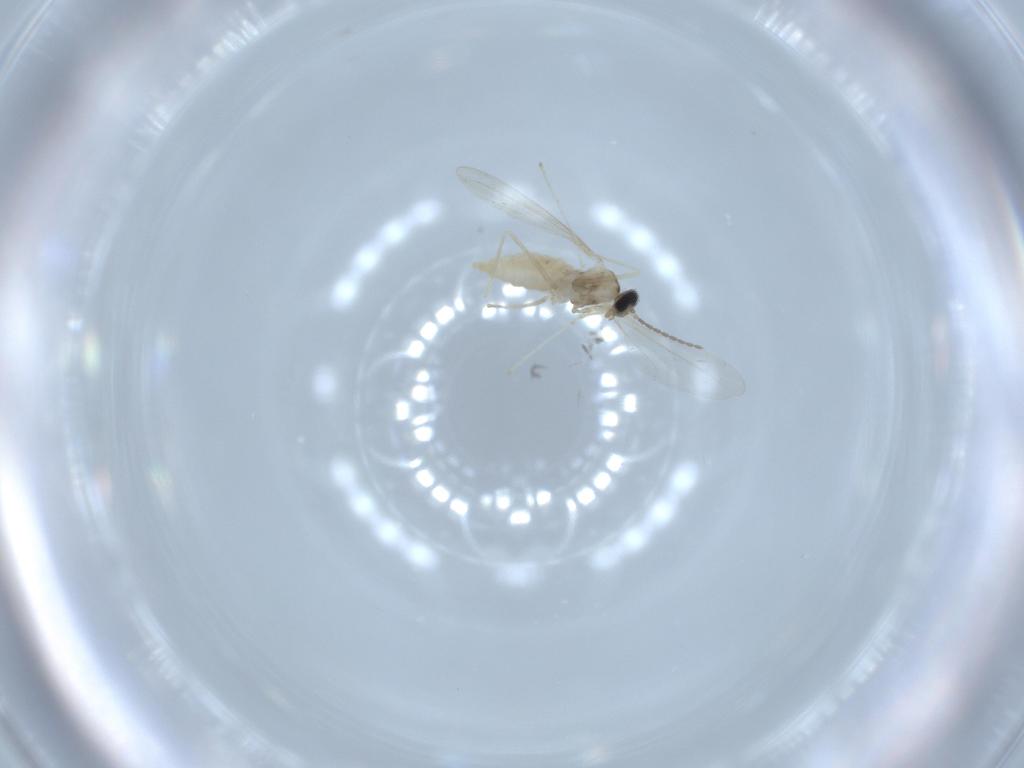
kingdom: Animalia
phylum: Arthropoda
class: Insecta
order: Diptera
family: Cecidomyiidae
